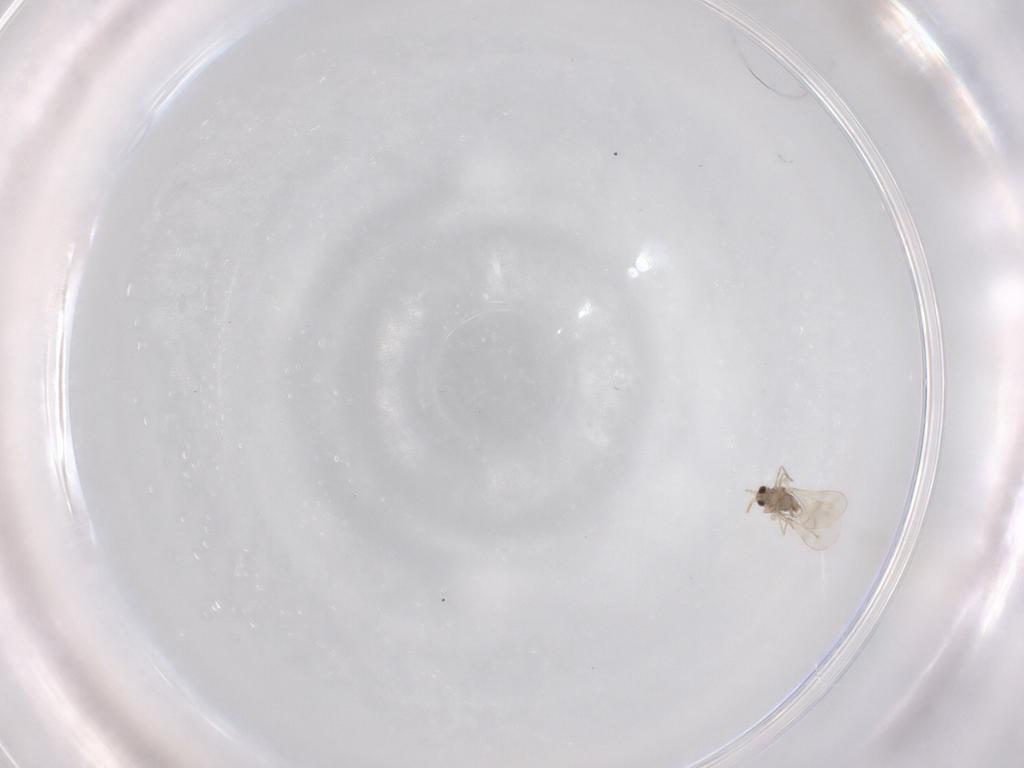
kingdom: Animalia
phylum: Arthropoda
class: Insecta
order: Diptera
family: Cecidomyiidae
